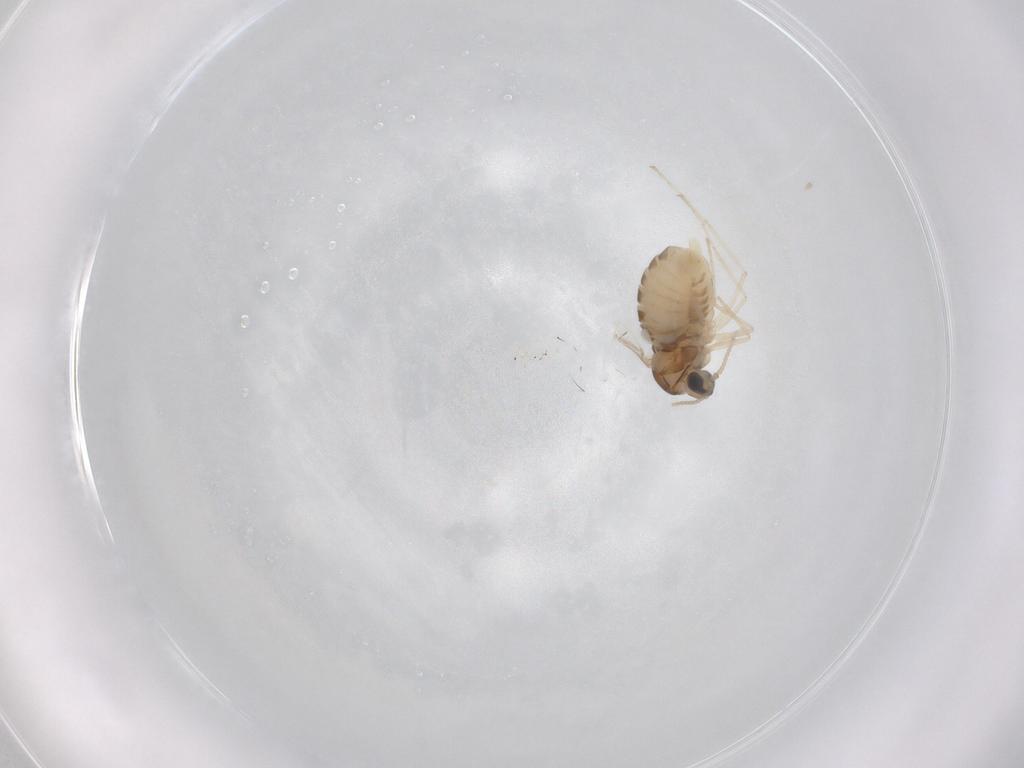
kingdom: Animalia
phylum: Arthropoda
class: Insecta
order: Diptera
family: Cecidomyiidae
